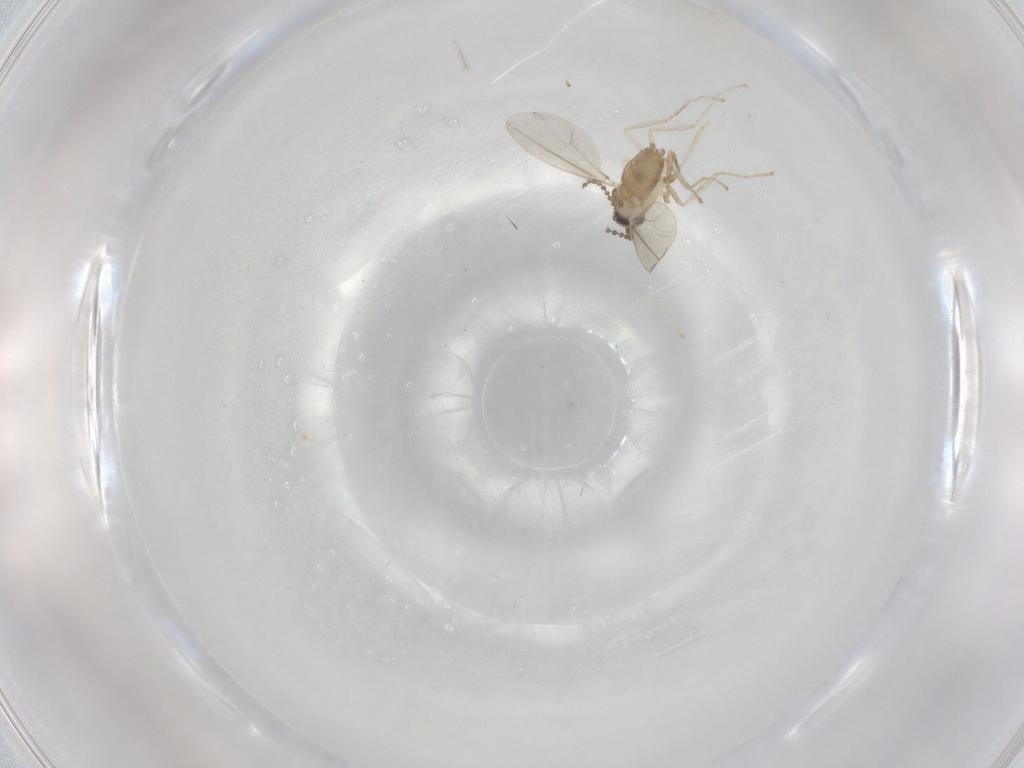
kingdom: Animalia
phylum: Arthropoda
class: Insecta
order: Diptera
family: Cecidomyiidae
